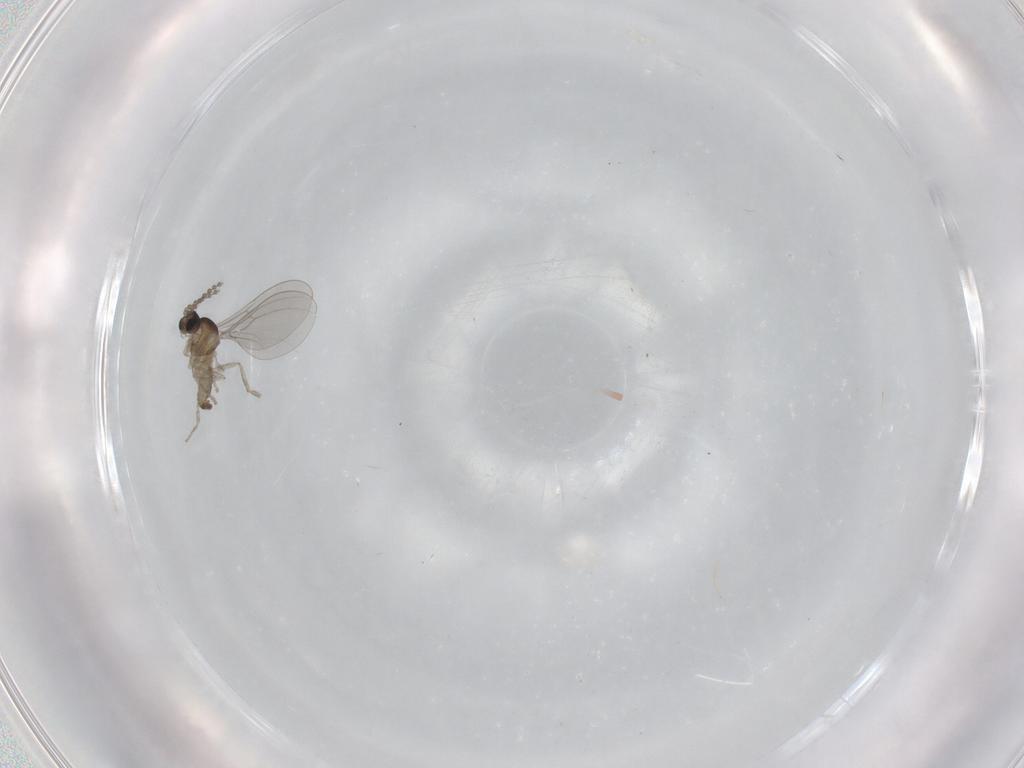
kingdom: Animalia
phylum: Arthropoda
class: Insecta
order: Diptera
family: Cecidomyiidae
